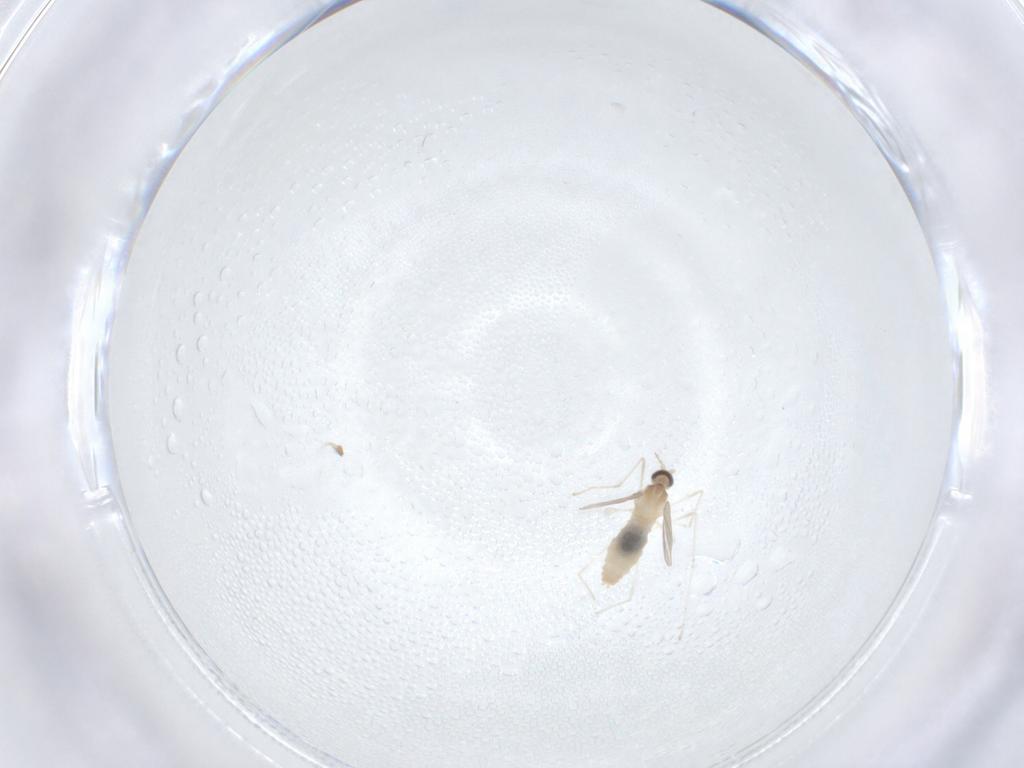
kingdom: Animalia
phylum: Arthropoda
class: Insecta
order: Diptera
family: Cecidomyiidae
